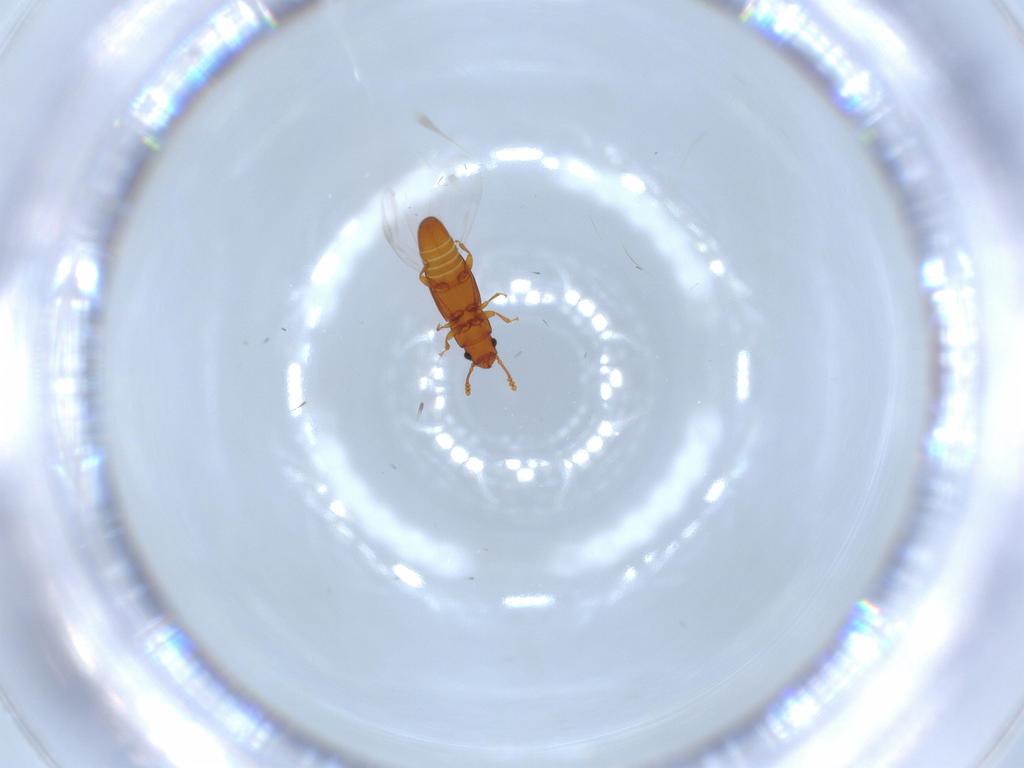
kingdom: Animalia
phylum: Arthropoda
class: Insecta
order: Coleoptera
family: Smicripidae
